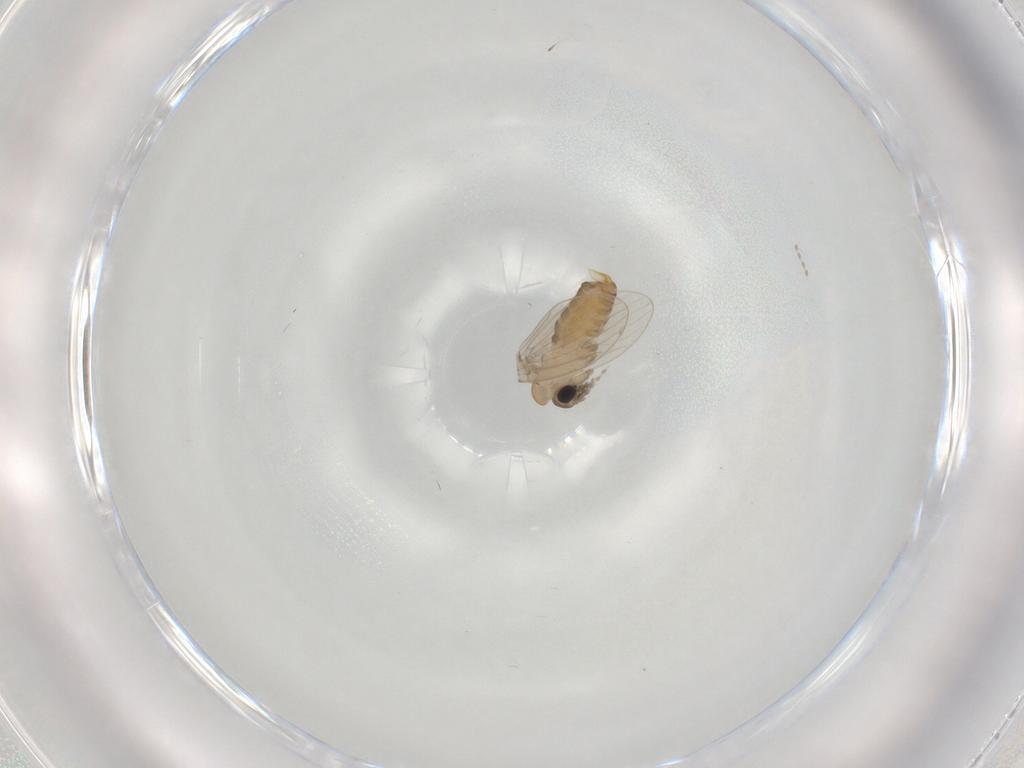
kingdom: Animalia
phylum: Arthropoda
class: Insecta
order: Diptera
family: Psychodidae
